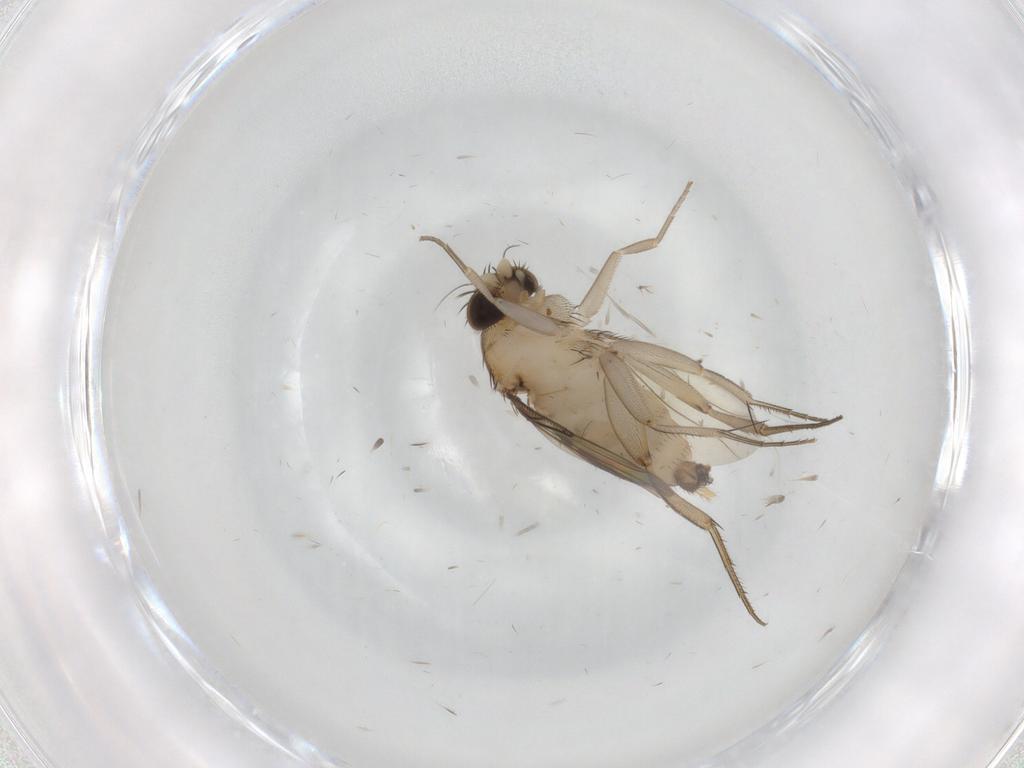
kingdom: Animalia
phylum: Arthropoda
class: Insecta
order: Diptera
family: Phoridae
